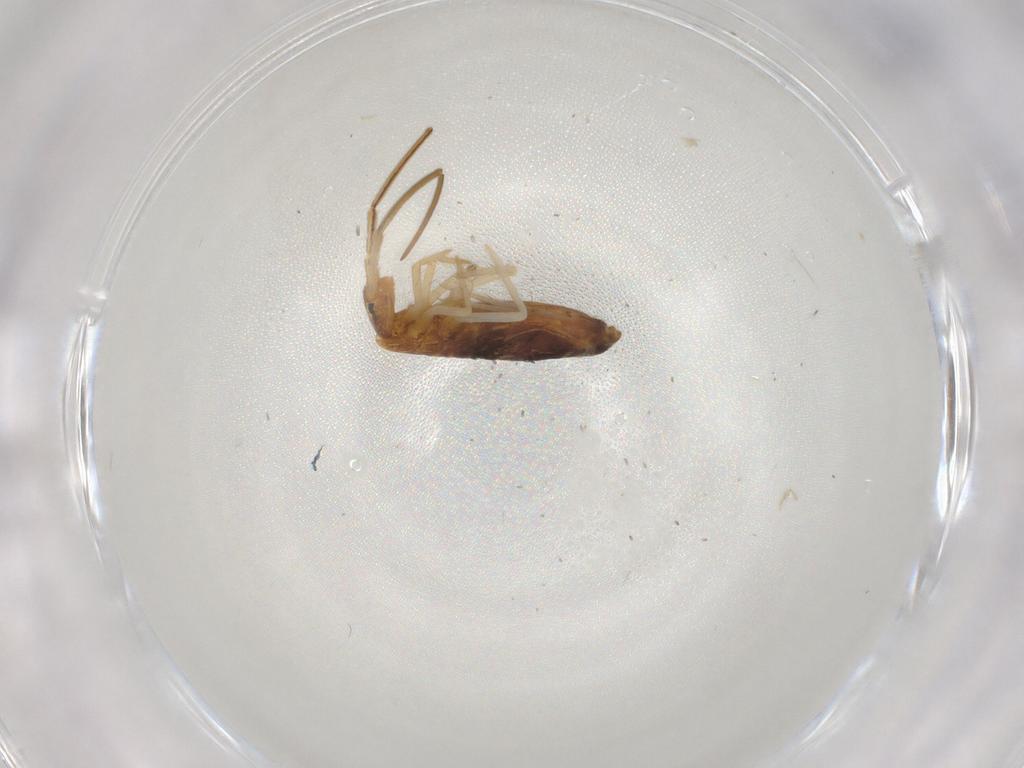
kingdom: Animalia
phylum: Arthropoda
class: Collembola
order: Entomobryomorpha
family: Entomobryidae
